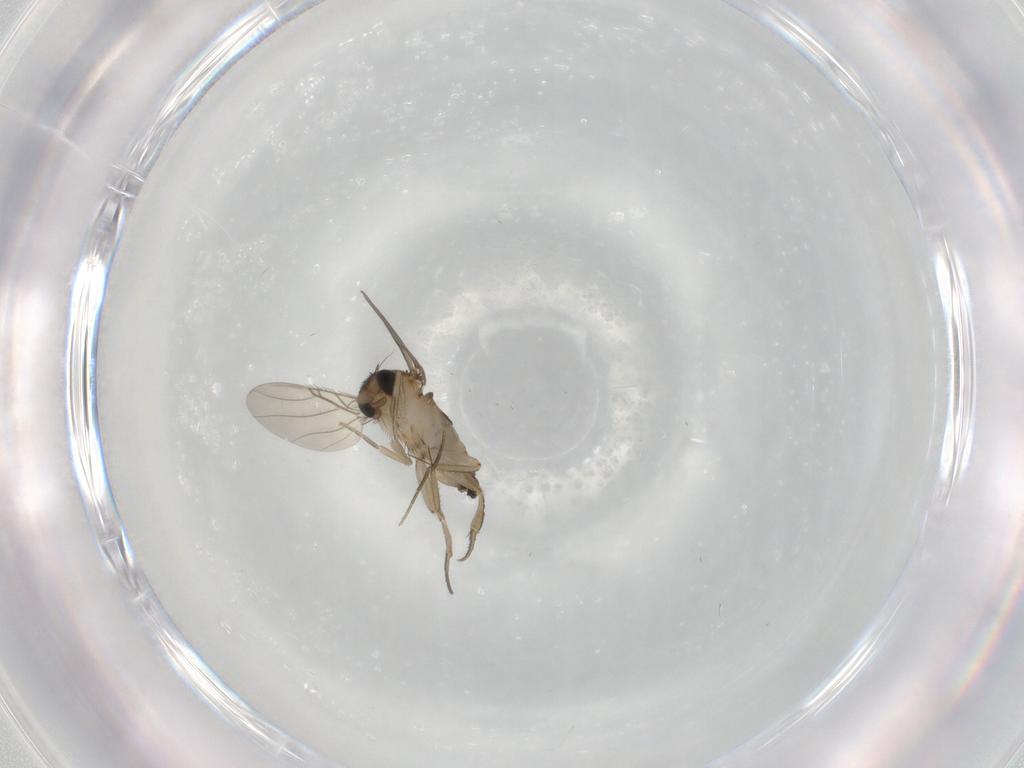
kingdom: Animalia
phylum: Arthropoda
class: Insecta
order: Diptera
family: Phoridae
